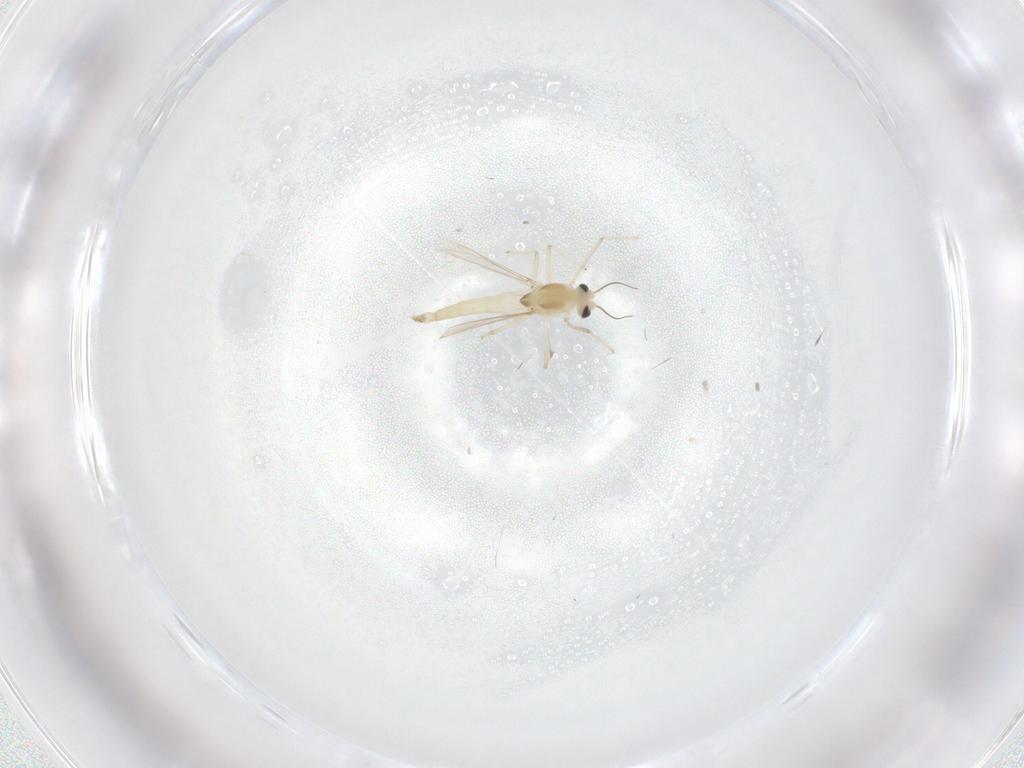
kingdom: Animalia
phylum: Arthropoda
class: Insecta
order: Diptera
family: Chironomidae
